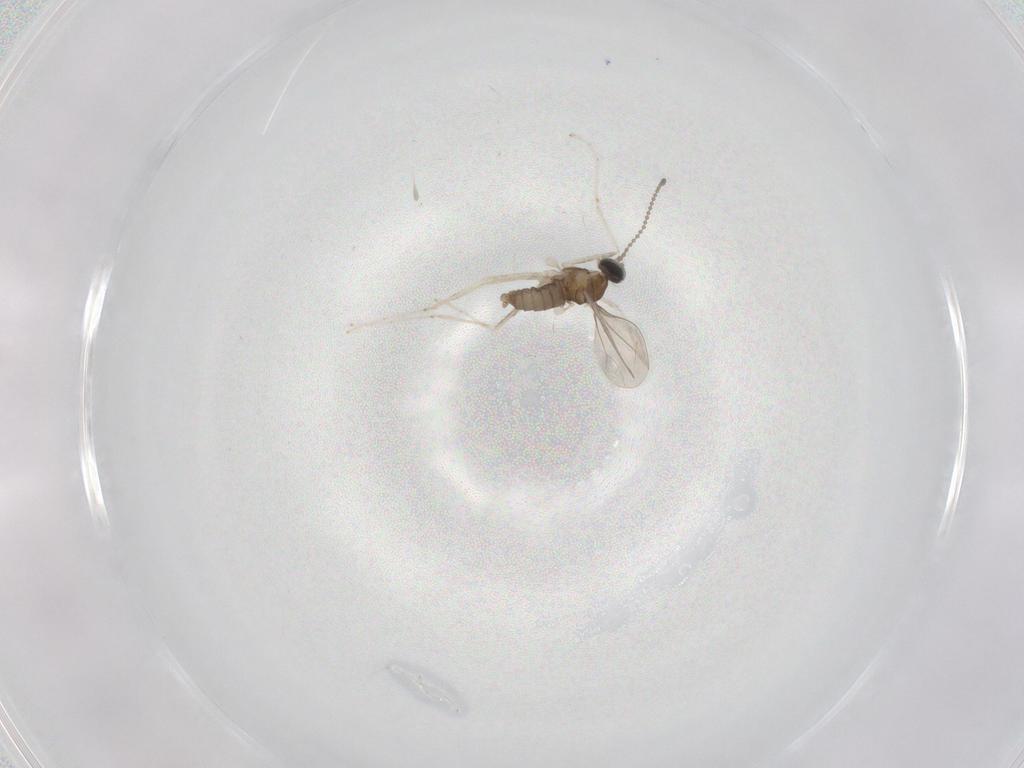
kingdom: Animalia
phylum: Arthropoda
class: Insecta
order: Diptera
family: Cecidomyiidae
